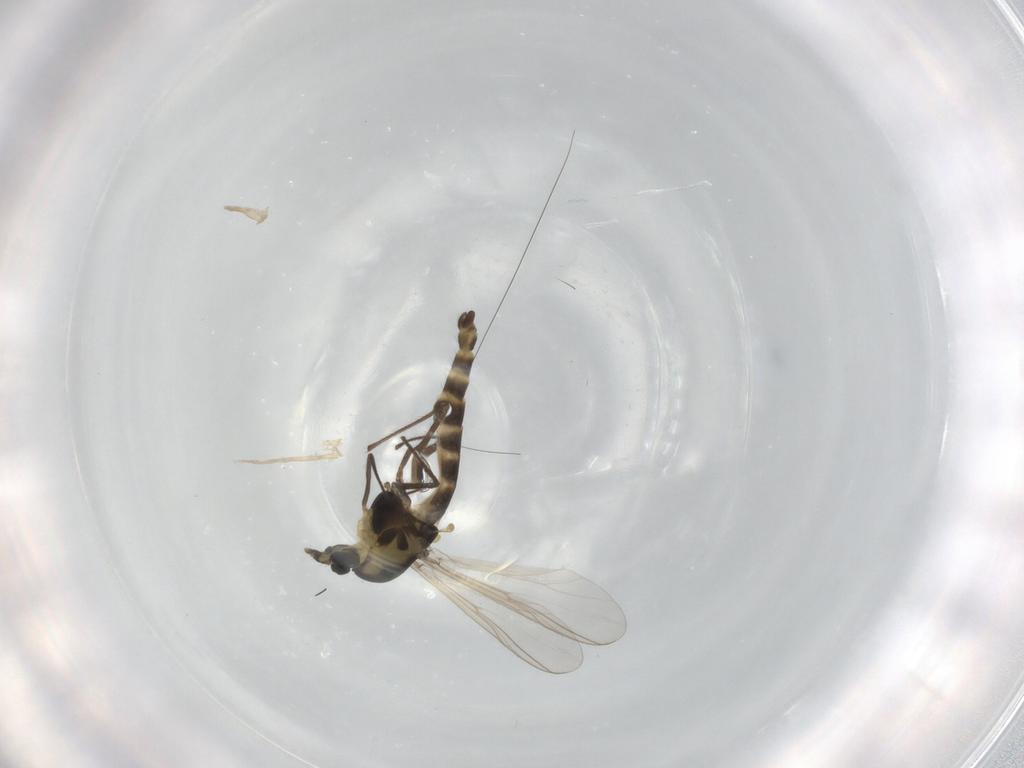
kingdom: Animalia
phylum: Arthropoda
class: Insecta
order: Diptera
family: Chironomidae
